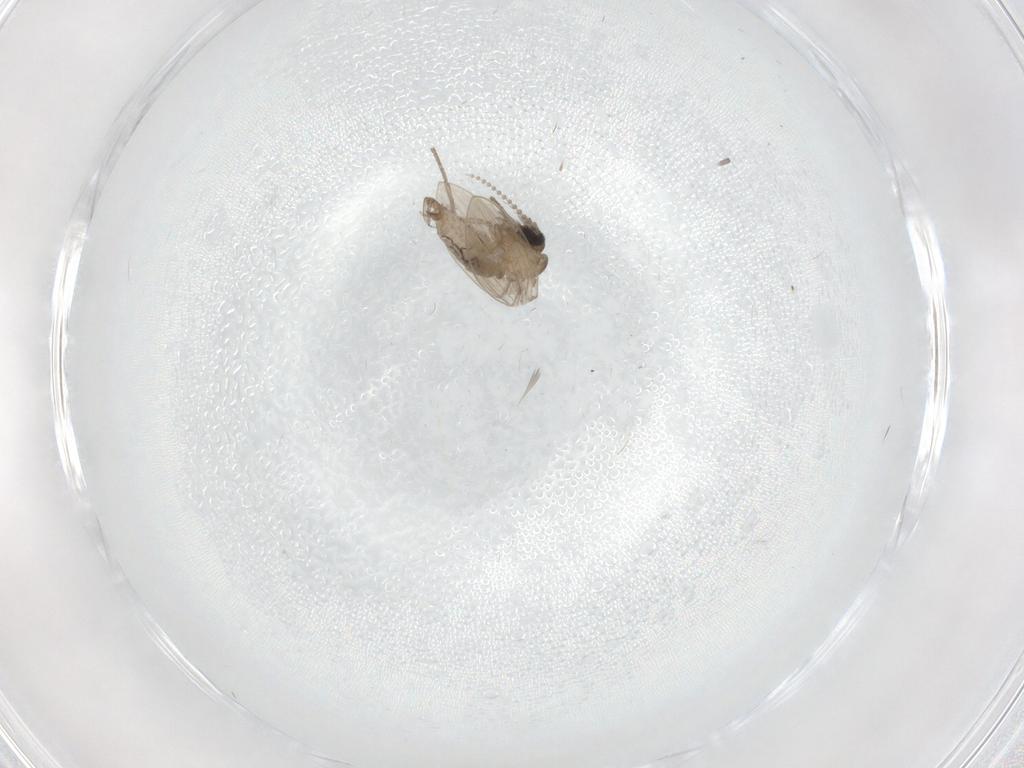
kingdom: Animalia
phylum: Arthropoda
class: Insecta
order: Diptera
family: Psychodidae
